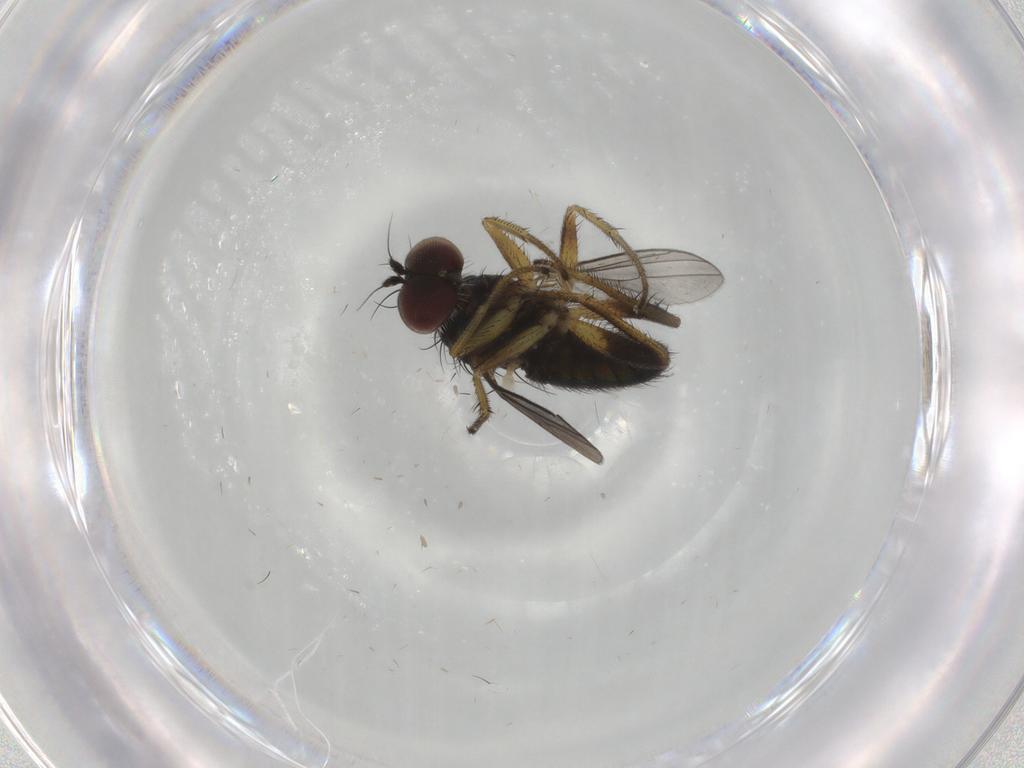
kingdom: Animalia
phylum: Arthropoda
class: Insecta
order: Diptera
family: Dolichopodidae
